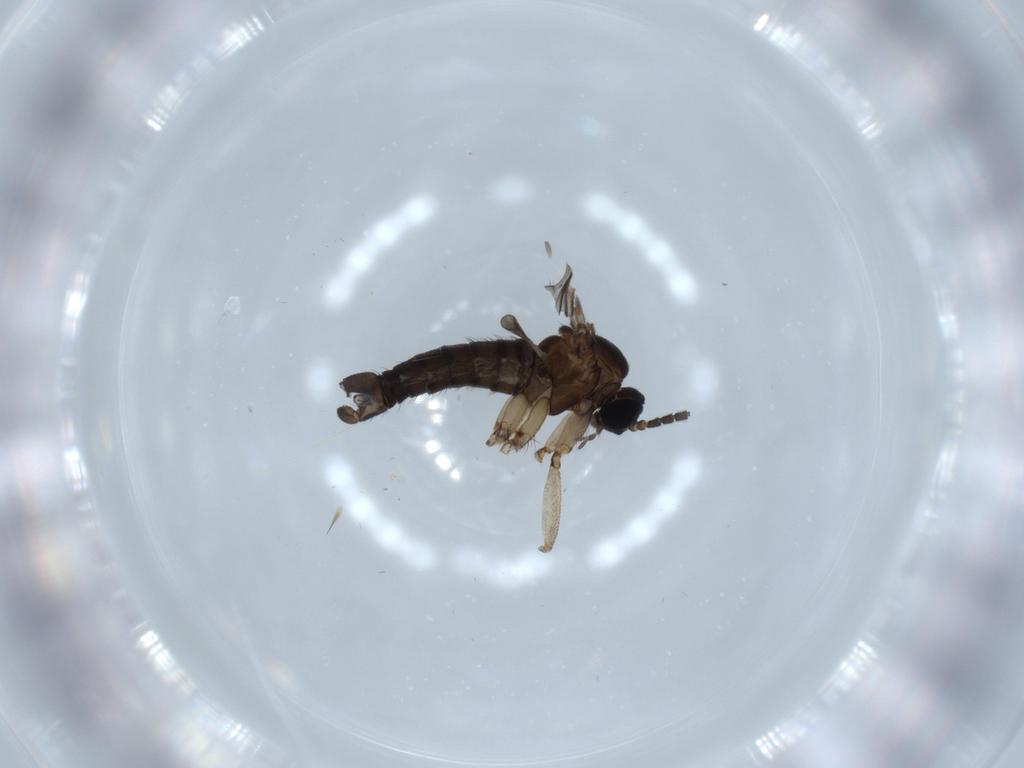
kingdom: Animalia
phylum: Arthropoda
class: Insecta
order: Diptera
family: Sciaridae
